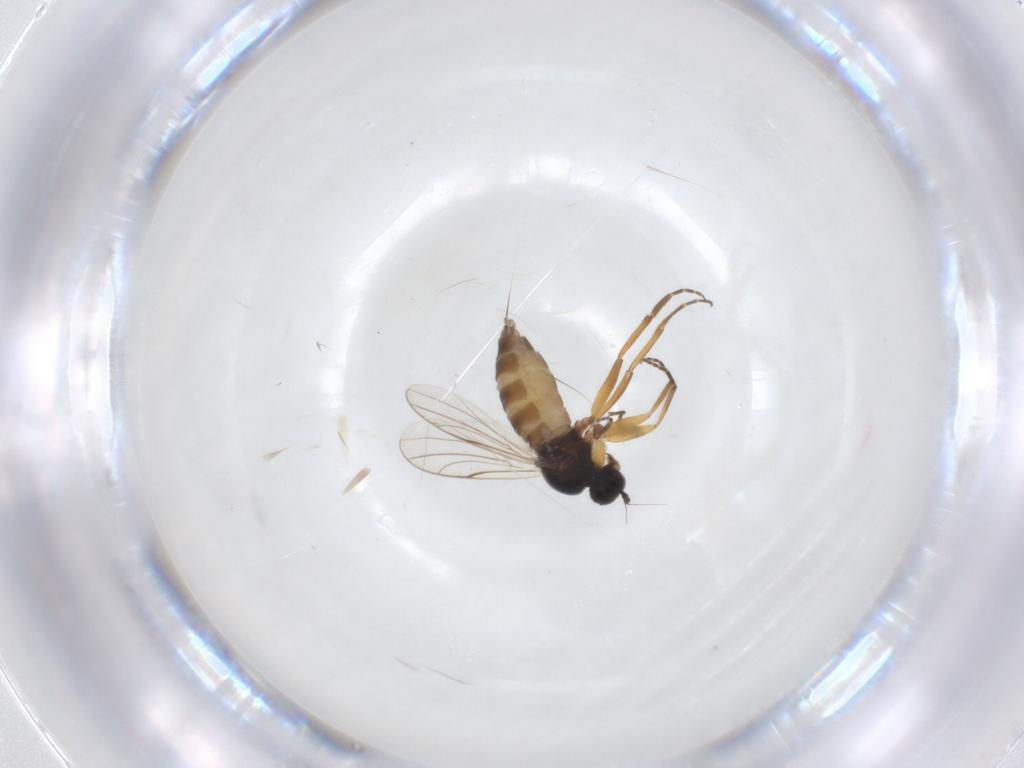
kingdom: Animalia
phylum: Arthropoda
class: Insecta
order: Diptera
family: Hybotidae
